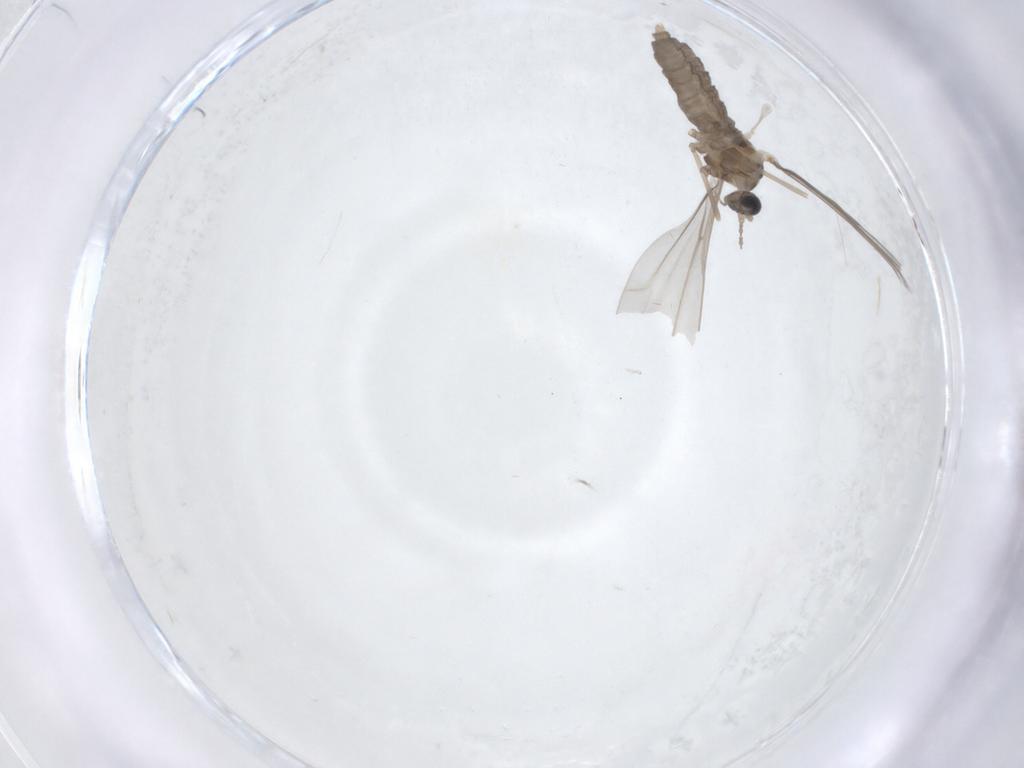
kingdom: Animalia
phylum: Arthropoda
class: Insecta
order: Diptera
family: Cecidomyiidae
